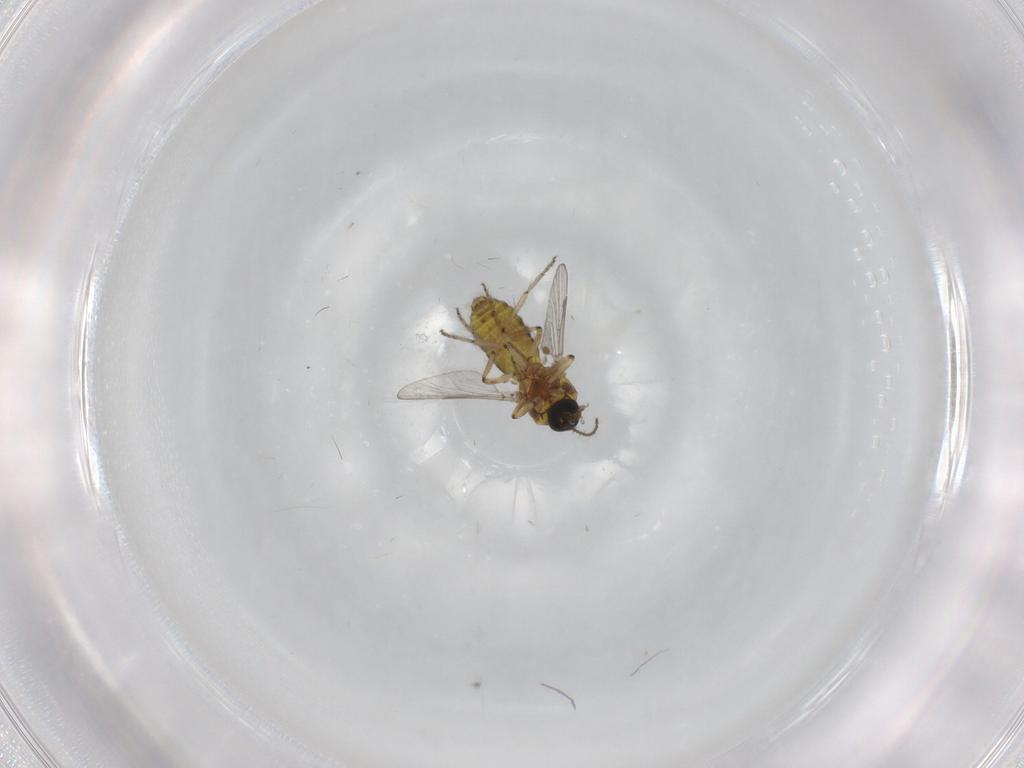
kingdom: Animalia
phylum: Arthropoda
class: Insecta
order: Diptera
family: Ceratopogonidae
